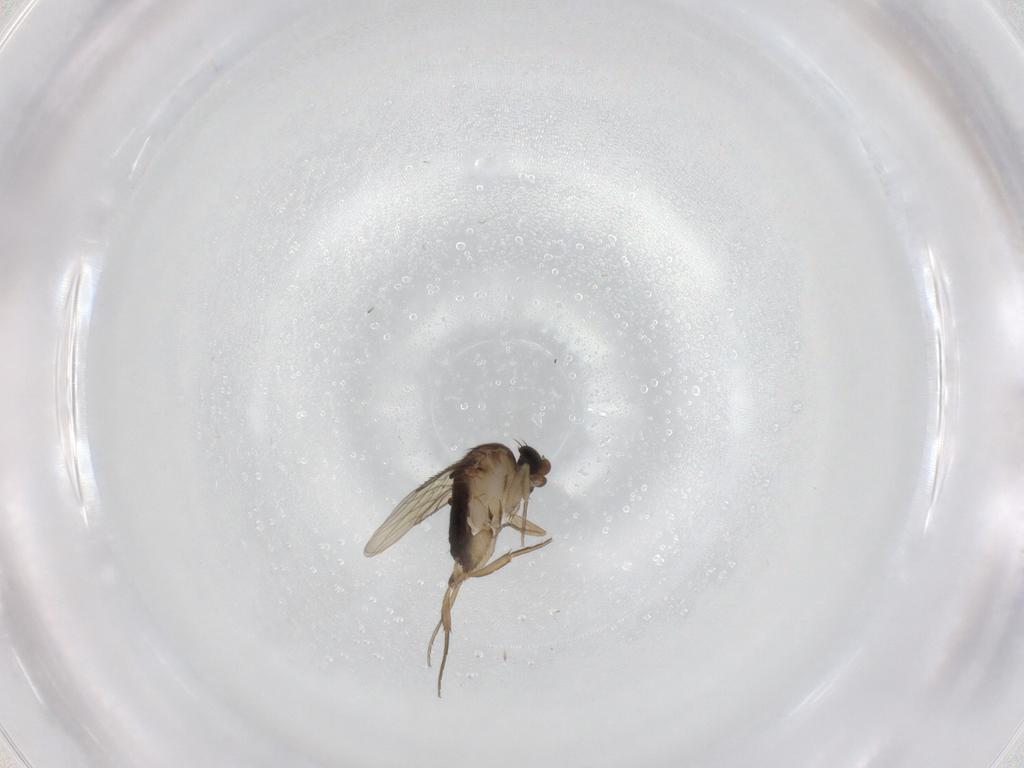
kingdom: Animalia
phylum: Arthropoda
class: Insecta
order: Diptera
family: Phoridae
